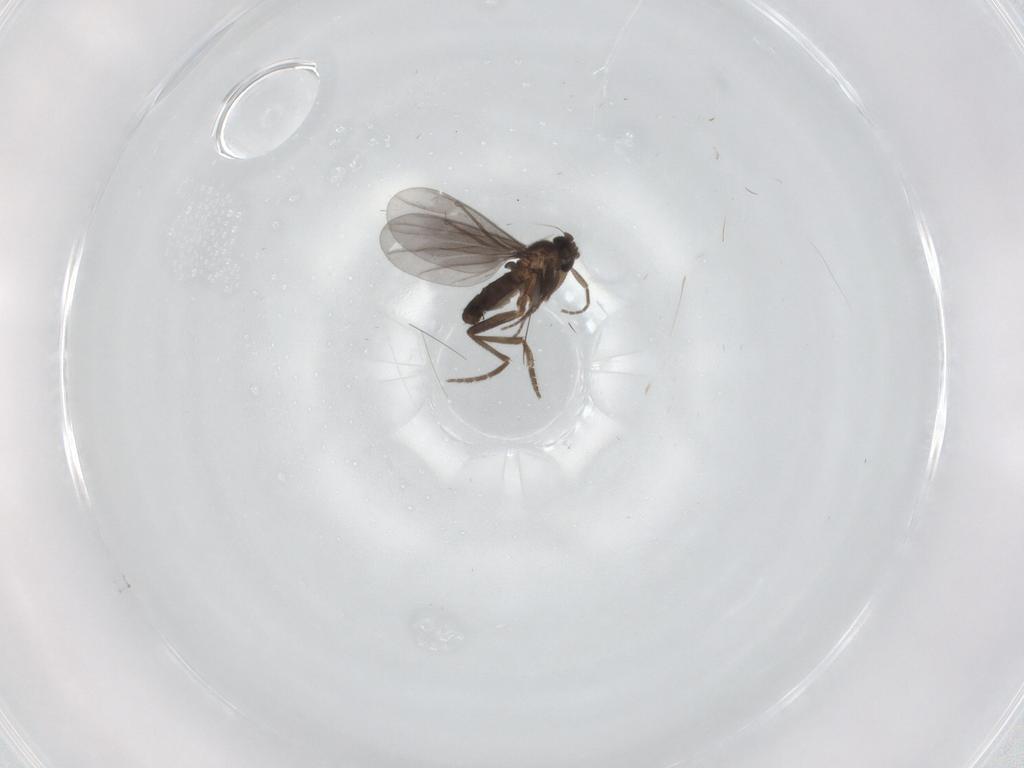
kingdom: Animalia
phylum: Arthropoda
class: Insecta
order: Diptera
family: Phoridae
